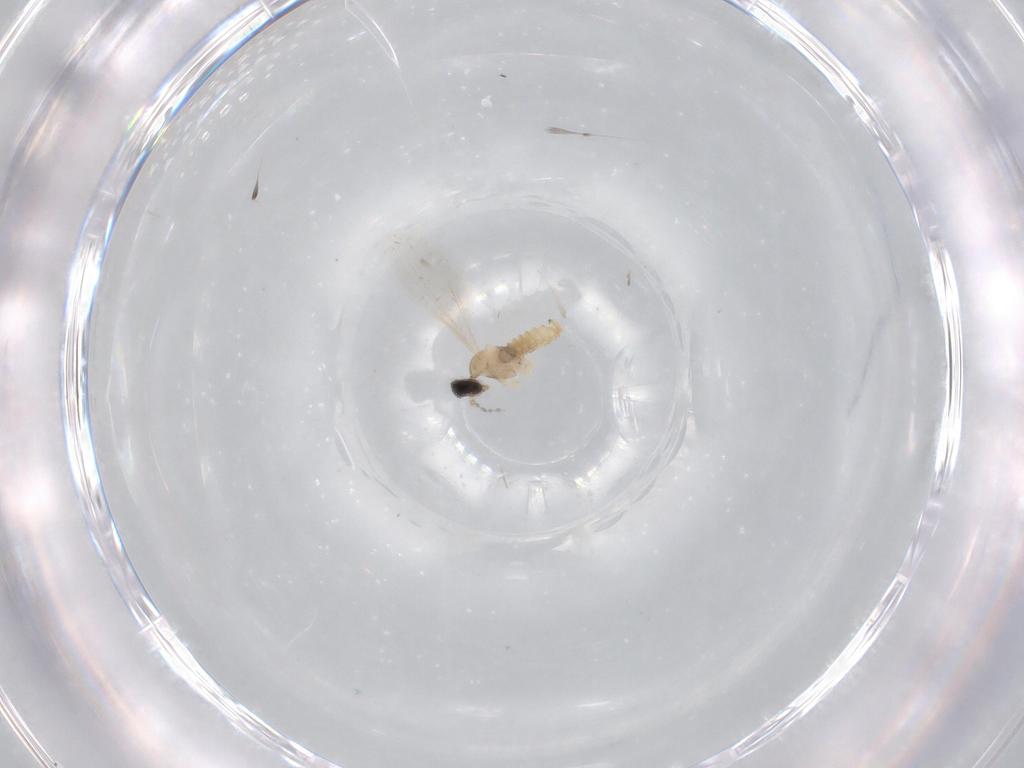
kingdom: Animalia
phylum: Arthropoda
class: Insecta
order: Diptera
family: Cecidomyiidae
